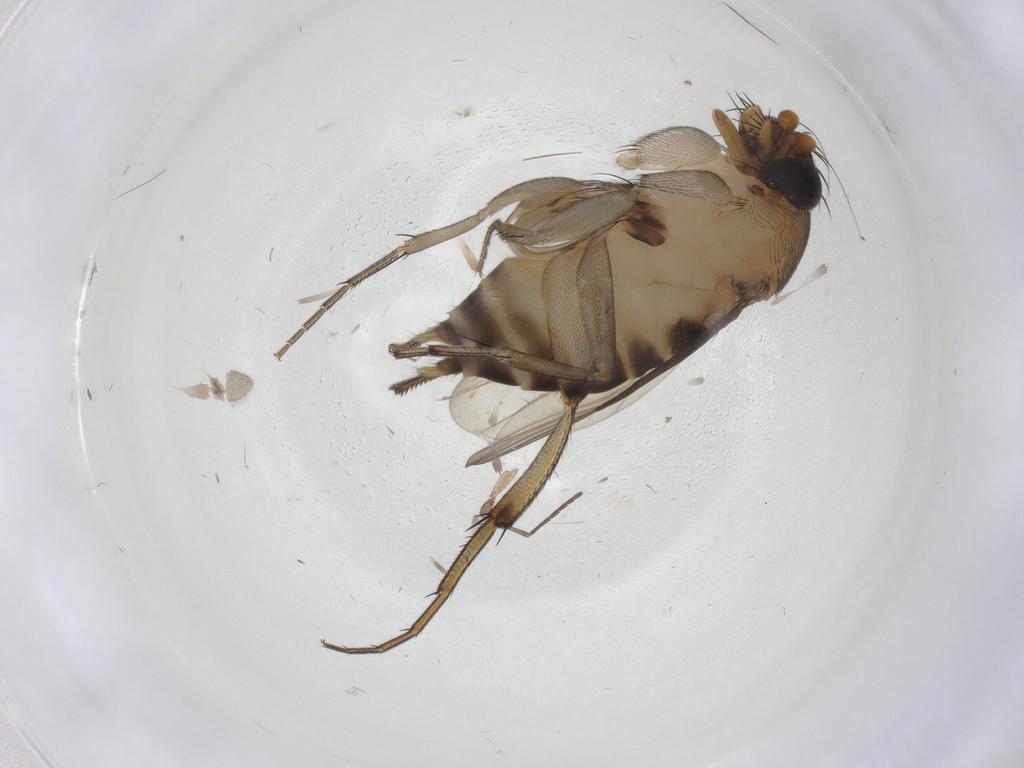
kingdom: Animalia
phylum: Arthropoda
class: Insecta
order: Diptera
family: Phoridae
